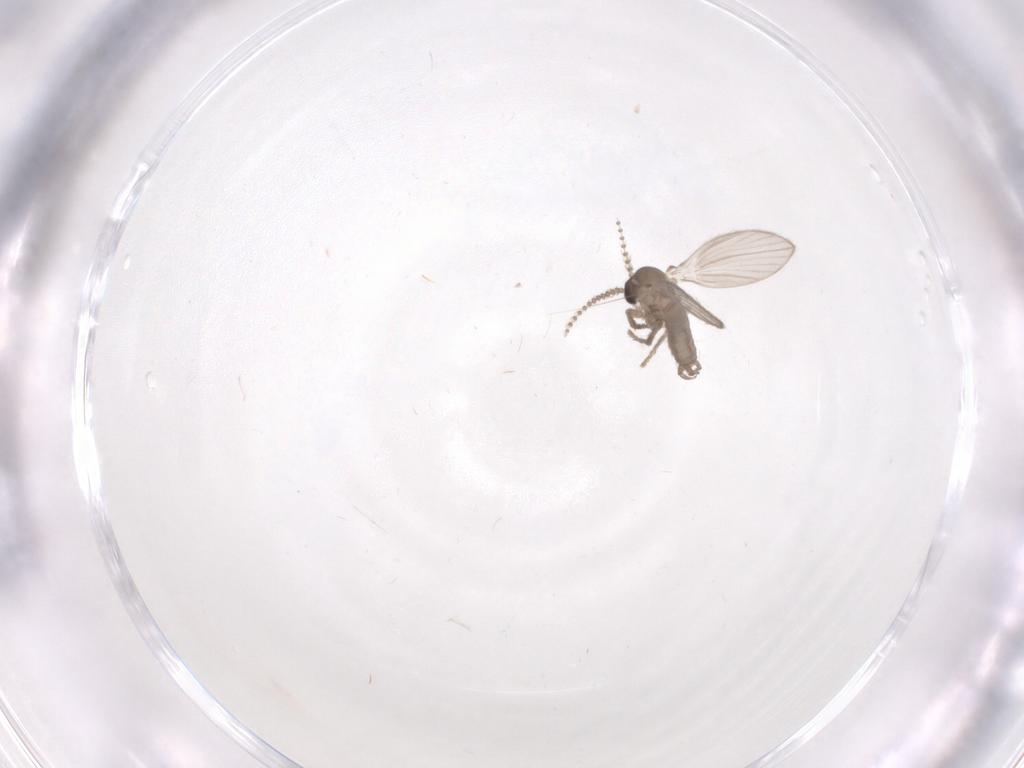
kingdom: Animalia
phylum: Arthropoda
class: Insecta
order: Diptera
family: Psychodidae
